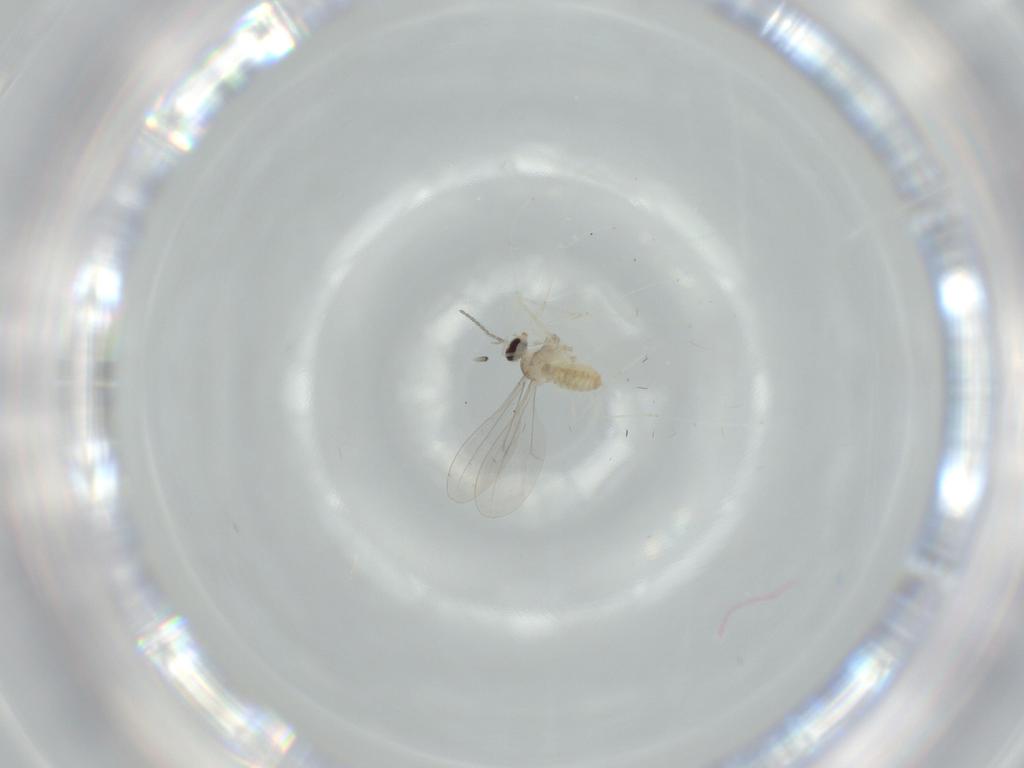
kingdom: Animalia
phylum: Arthropoda
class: Insecta
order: Diptera
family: Cecidomyiidae
